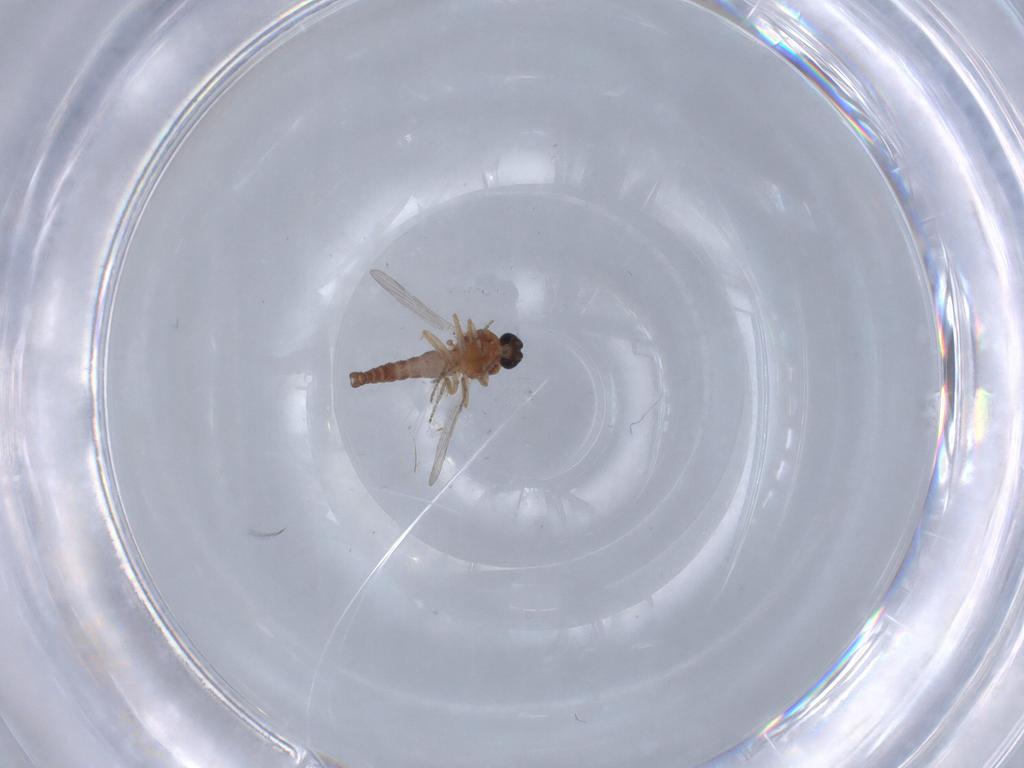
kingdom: Animalia
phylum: Arthropoda
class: Insecta
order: Diptera
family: Ceratopogonidae
